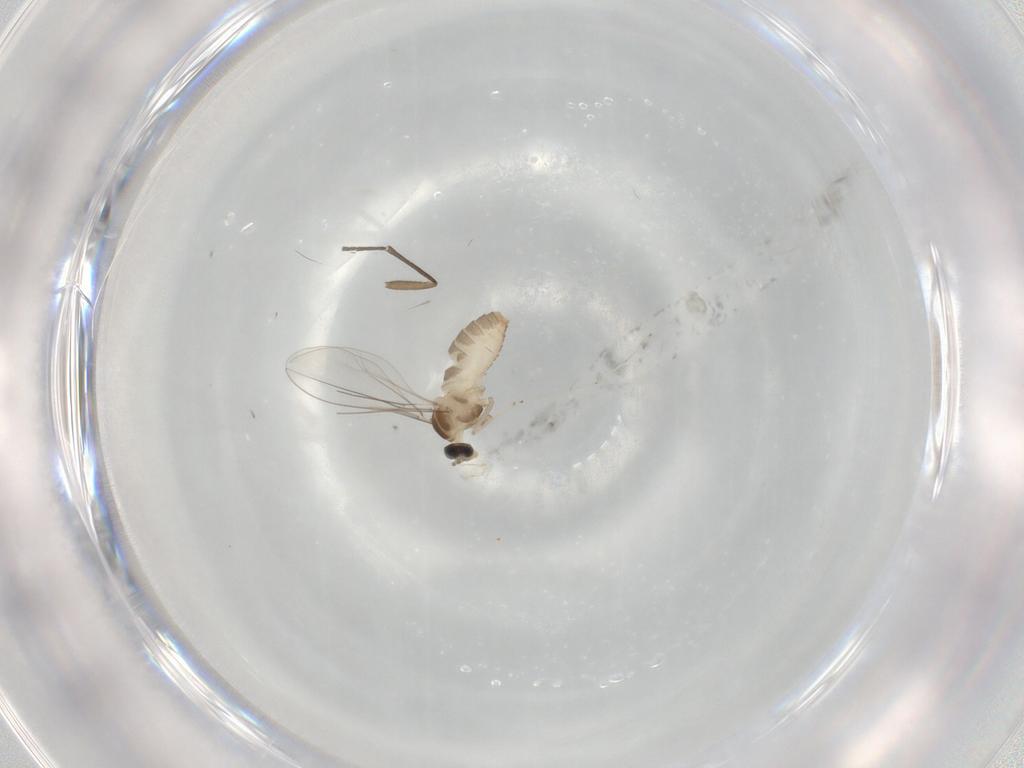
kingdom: Animalia
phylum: Arthropoda
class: Insecta
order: Diptera
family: Cecidomyiidae
